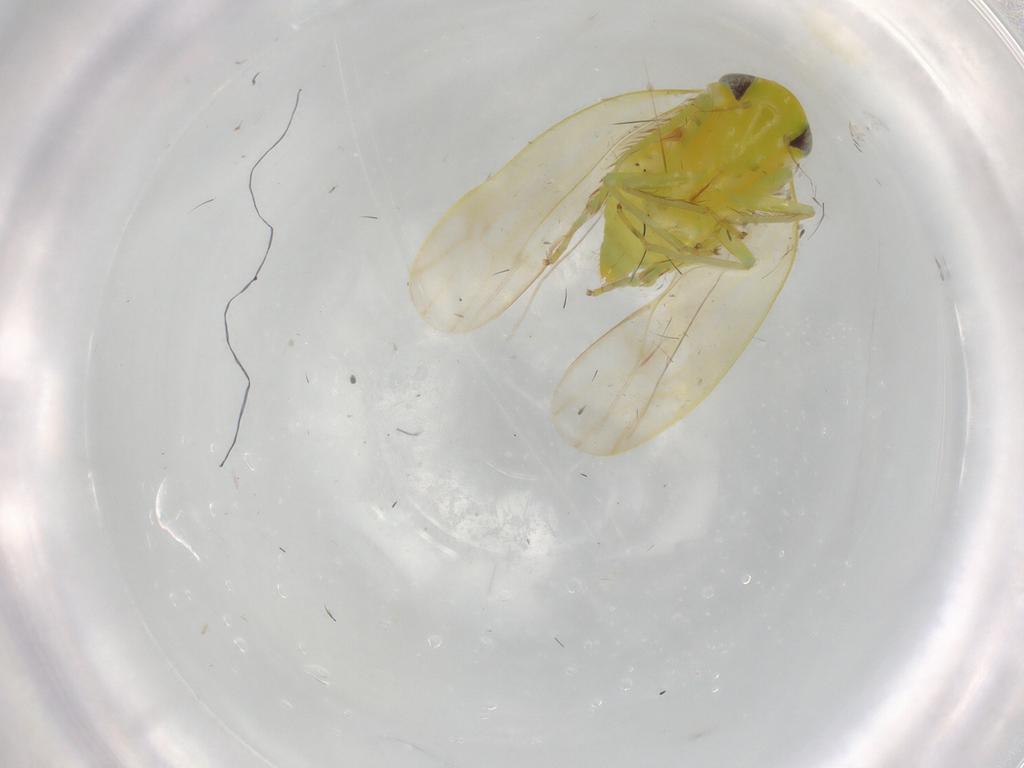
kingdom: Animalia
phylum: Arthropoda
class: Insecta
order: Hemiptera
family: Cicadellidae
